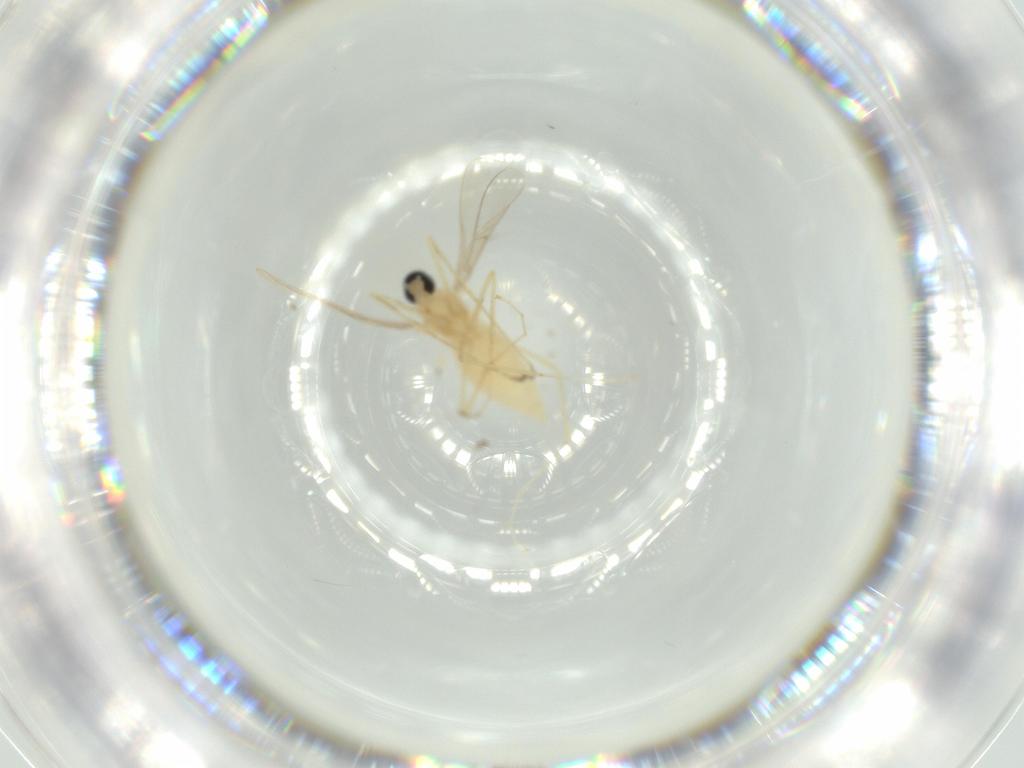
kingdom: Animalia
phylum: Arthropoda
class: Insecta
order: Diptera
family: Cecidomyiidae
